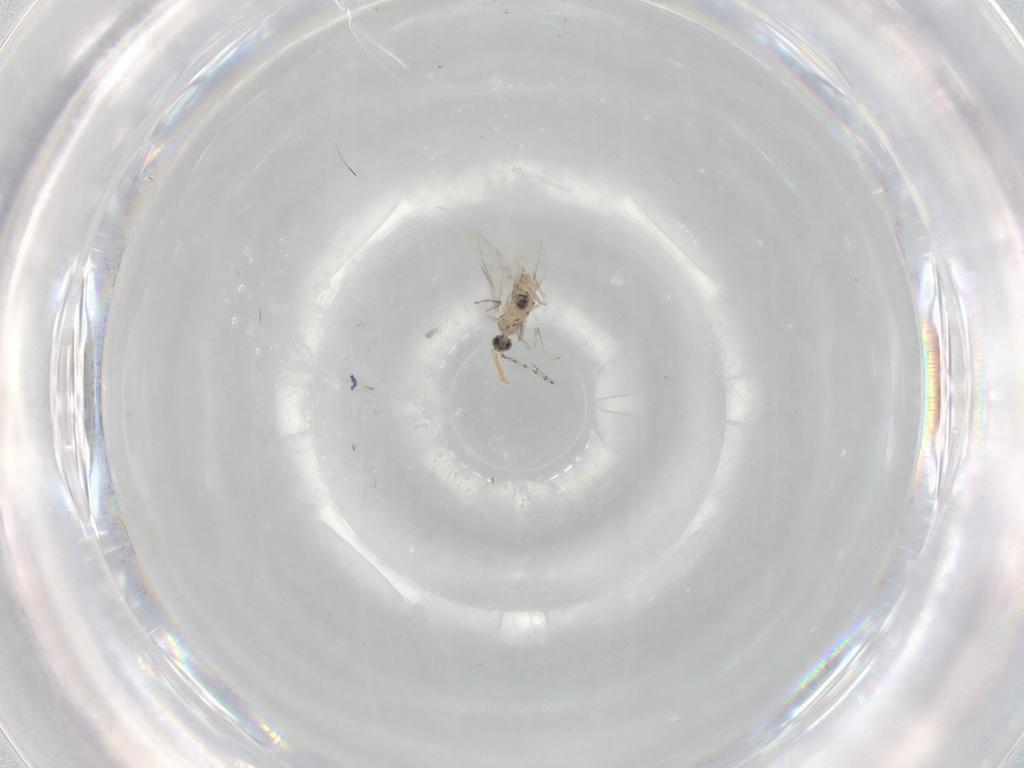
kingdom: Animalia
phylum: Arthropoda
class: Insecta
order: Diptera
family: Cecidomyiidae
